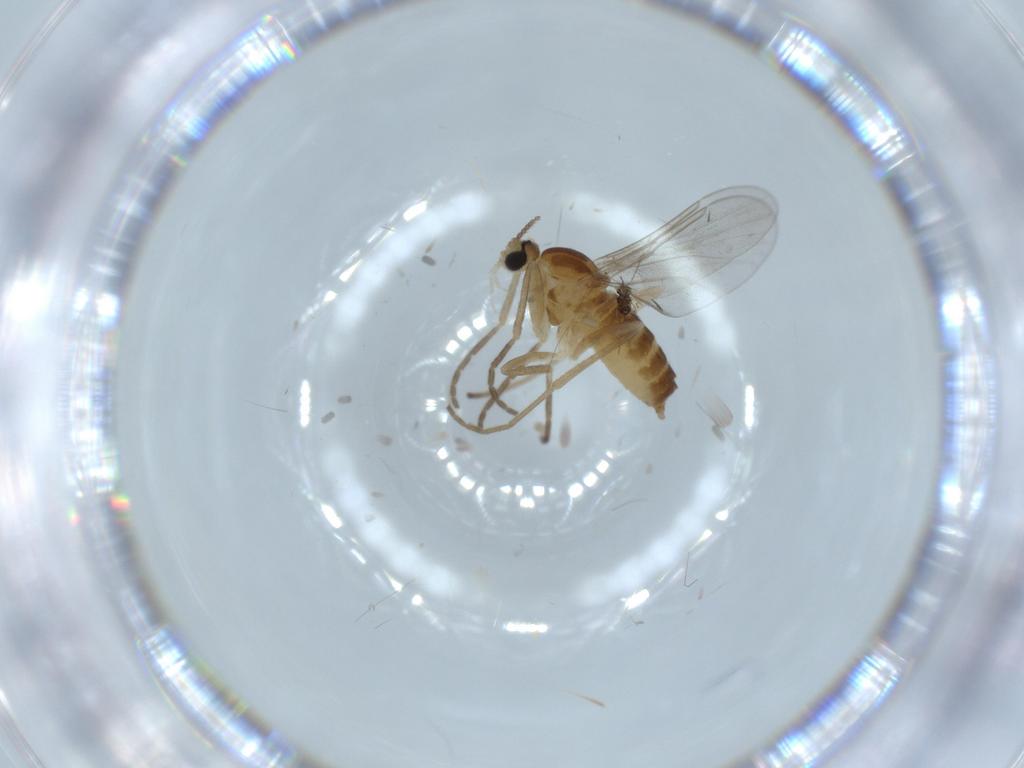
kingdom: Animalia
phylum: Arthropoda
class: Insecta
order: Diptera
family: Cecidomyiidae
